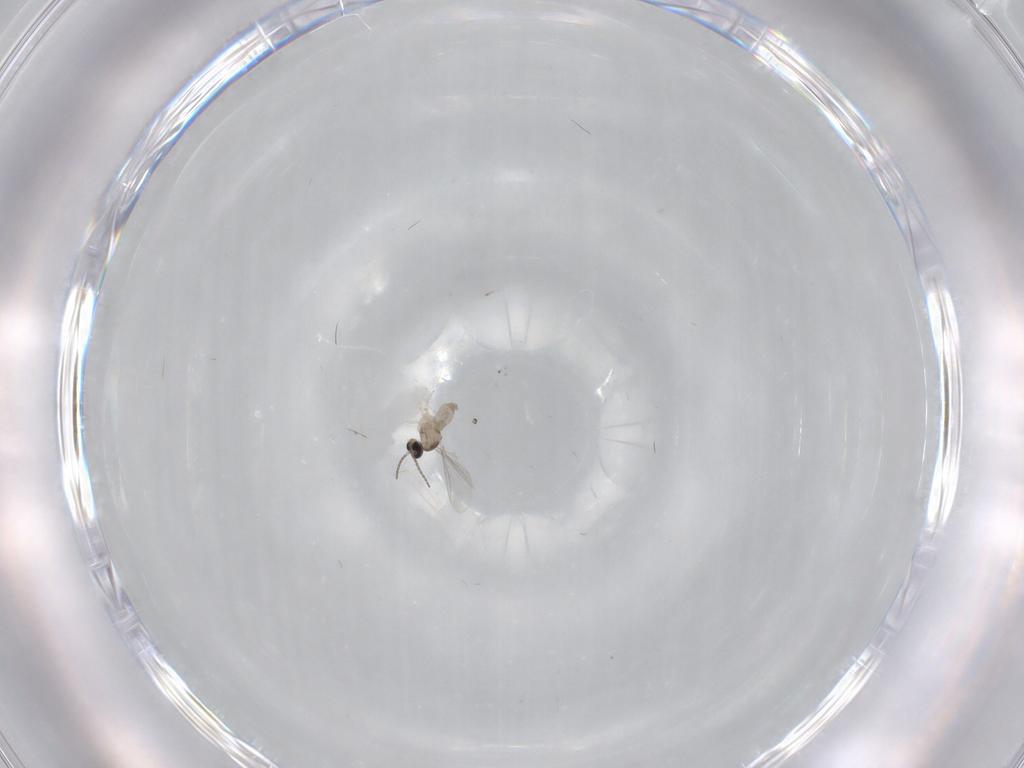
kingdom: Animalia
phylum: Arthropoda
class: Insecta
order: Diptera
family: Cecidomyiidae
